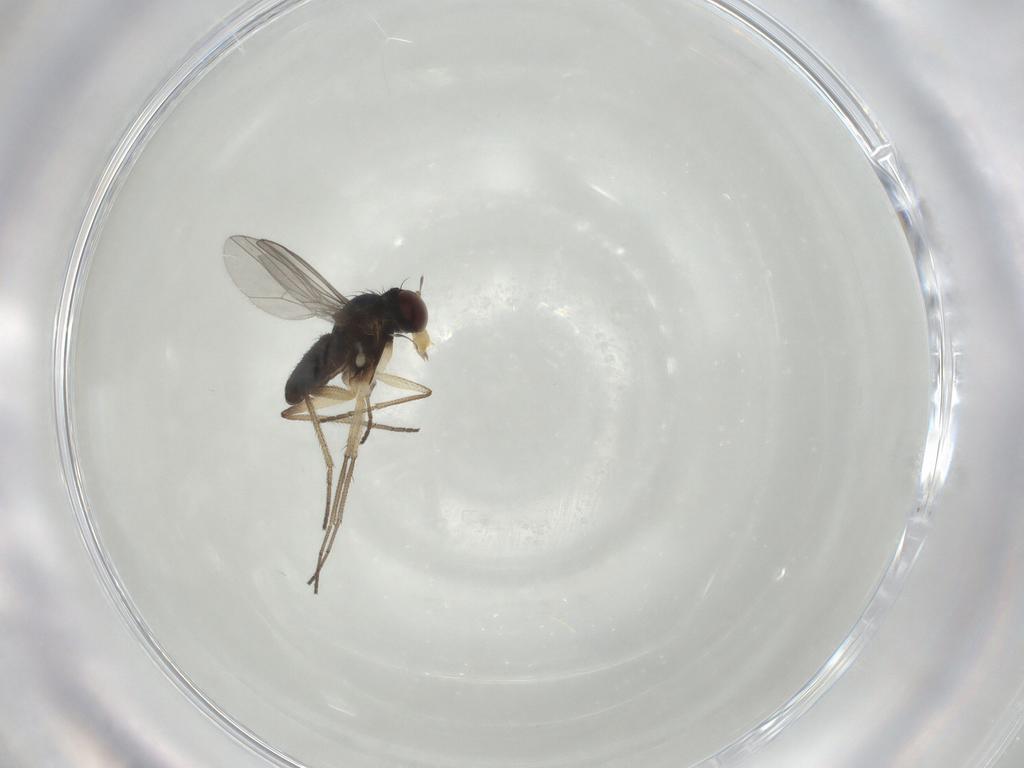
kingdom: Animalia
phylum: Arthropoda
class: Insecta
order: Diptera
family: Dolichopodidae
